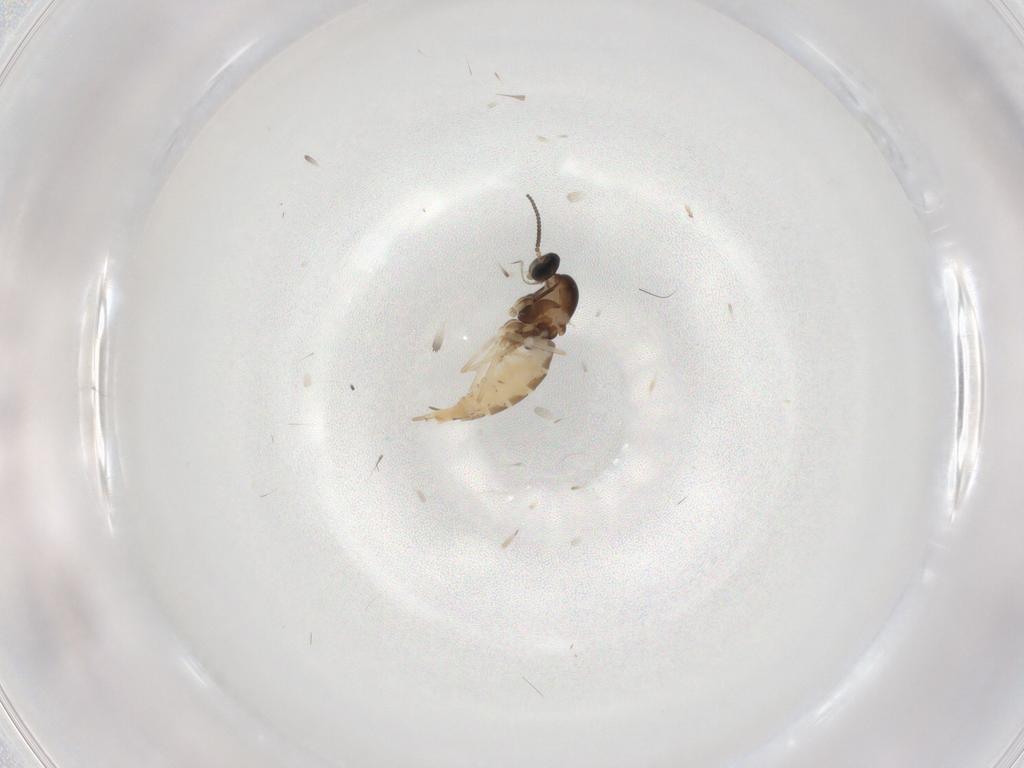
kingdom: Animalia
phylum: Arthropoda
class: Insecta
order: Diptera
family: Cecidomyiidae
